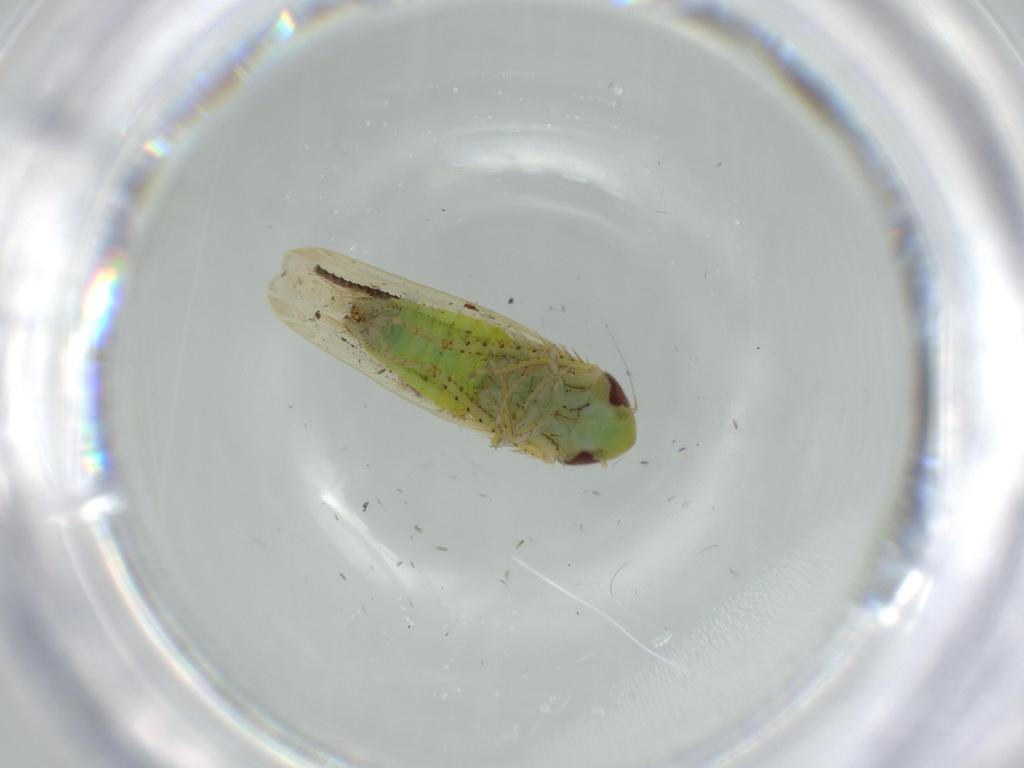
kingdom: Animalia
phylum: Arthropoda
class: Insecta
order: Hemiptera
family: Cicadellidae
